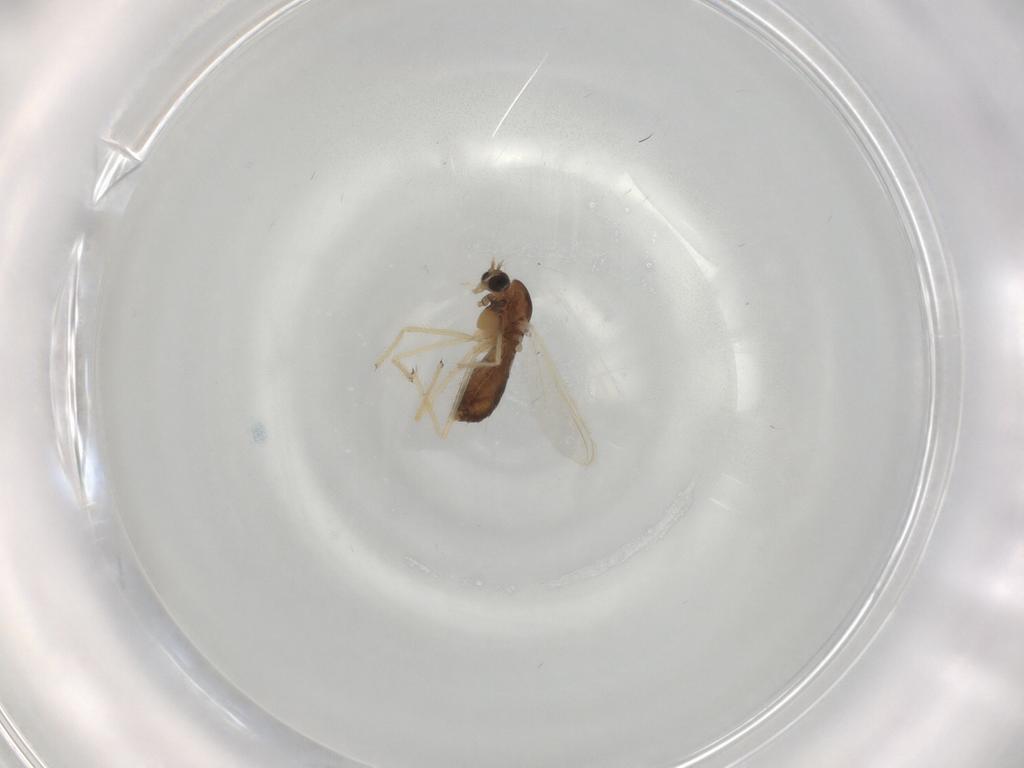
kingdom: Animalia
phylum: Arthropoda
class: Insecta
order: Diptera
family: Chironomidae
